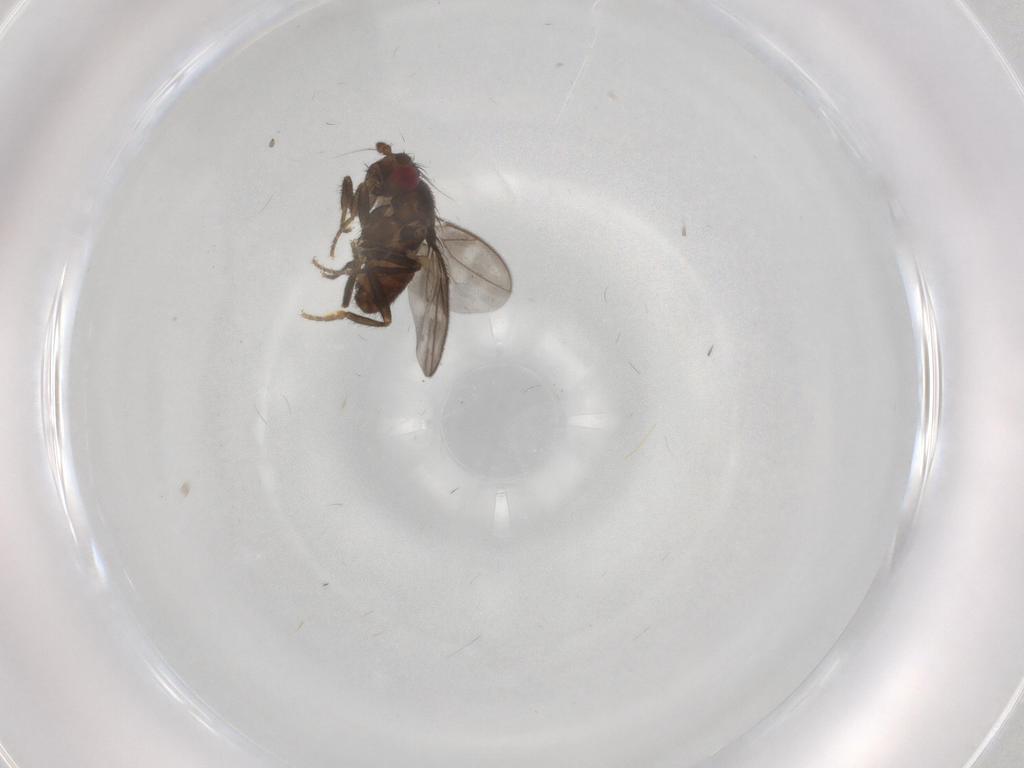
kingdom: Animalia
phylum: Arthropoda
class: Insecta
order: Diptera
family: Sphaeroceridae
